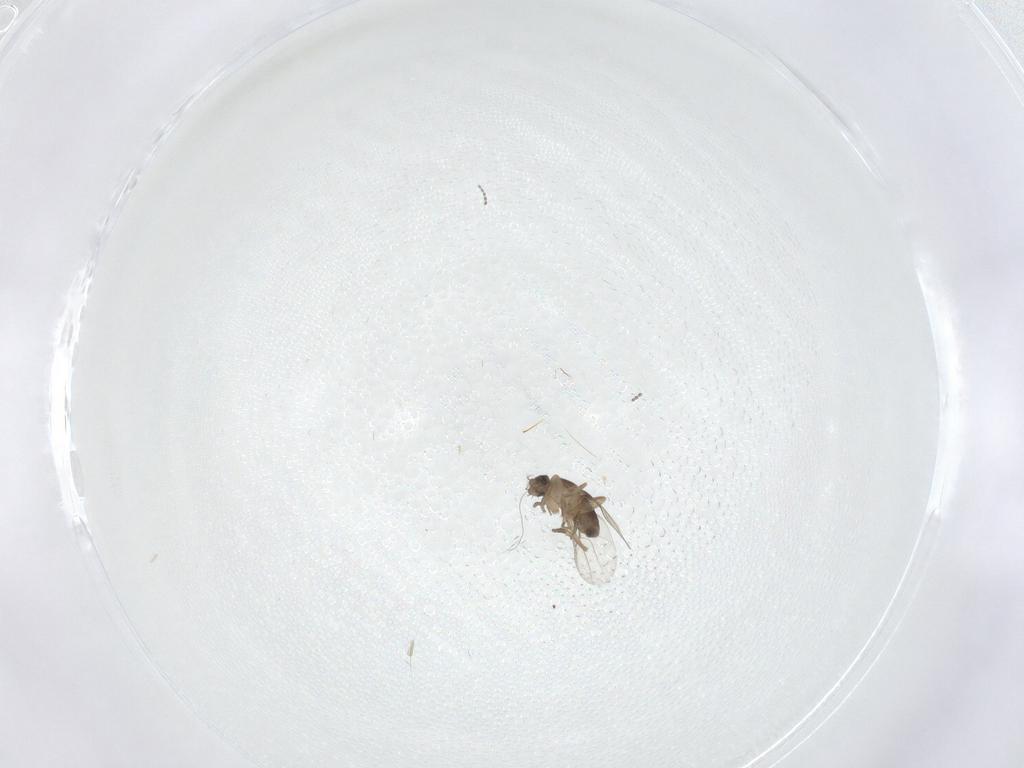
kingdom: Animalia
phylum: Arthropoda
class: Insecta
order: Diptera
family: Phoridae
